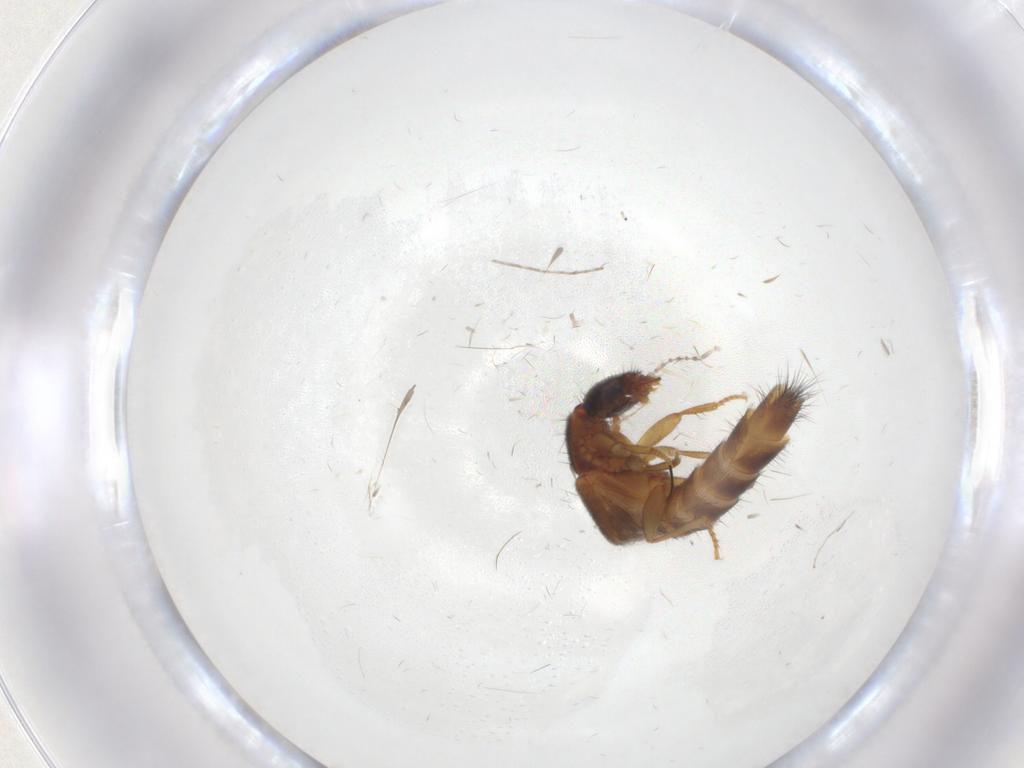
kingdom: Animalia
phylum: Arthropoda
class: Insecta
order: Coleoptera
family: Staphylinidae
